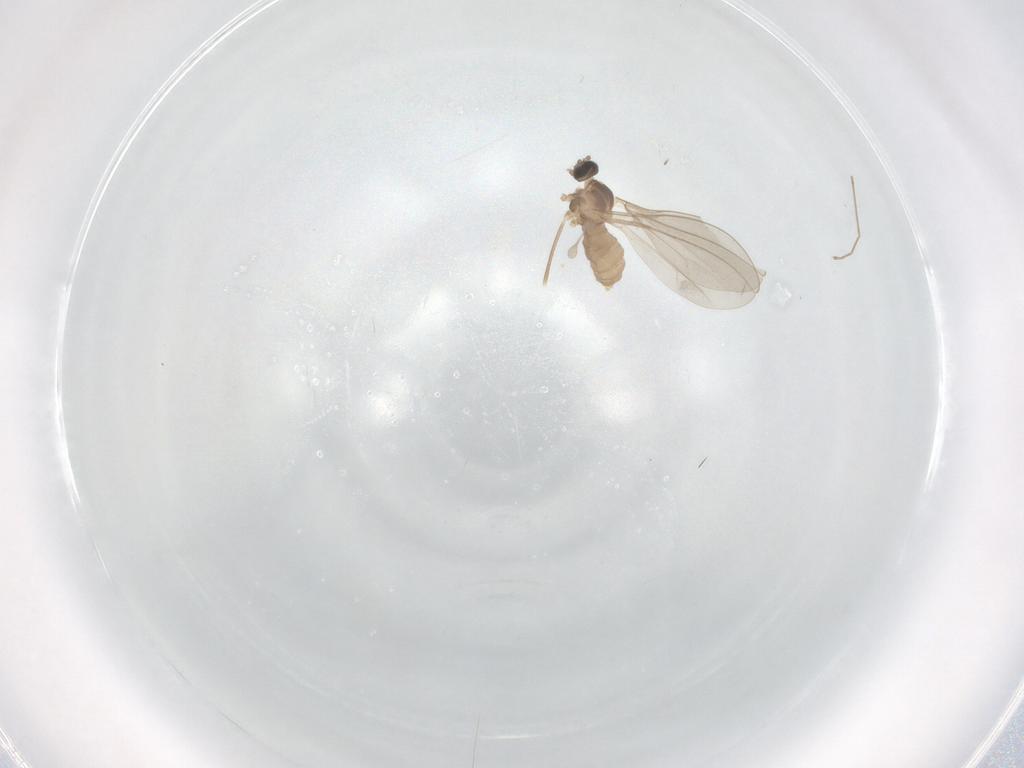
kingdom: Animalia
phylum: Arthropoda
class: Insecta
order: Diptera
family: Cecidomyiidae
